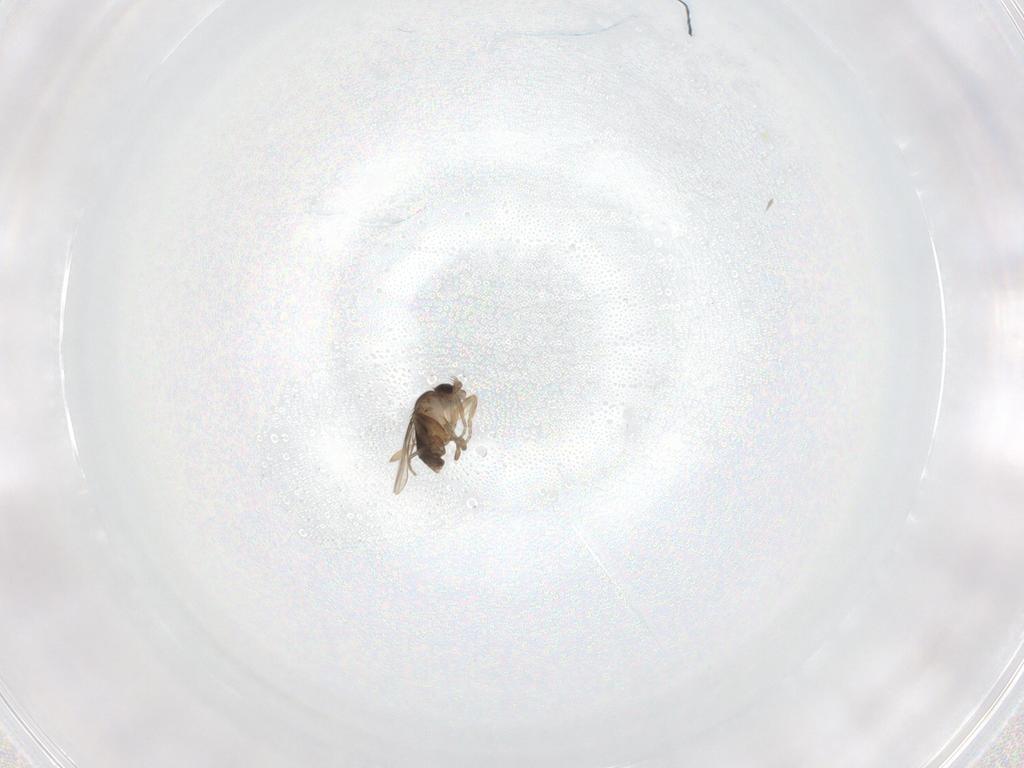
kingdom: Animalia
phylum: Arthropoda
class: Insecta
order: Diptera
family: Phoridae
